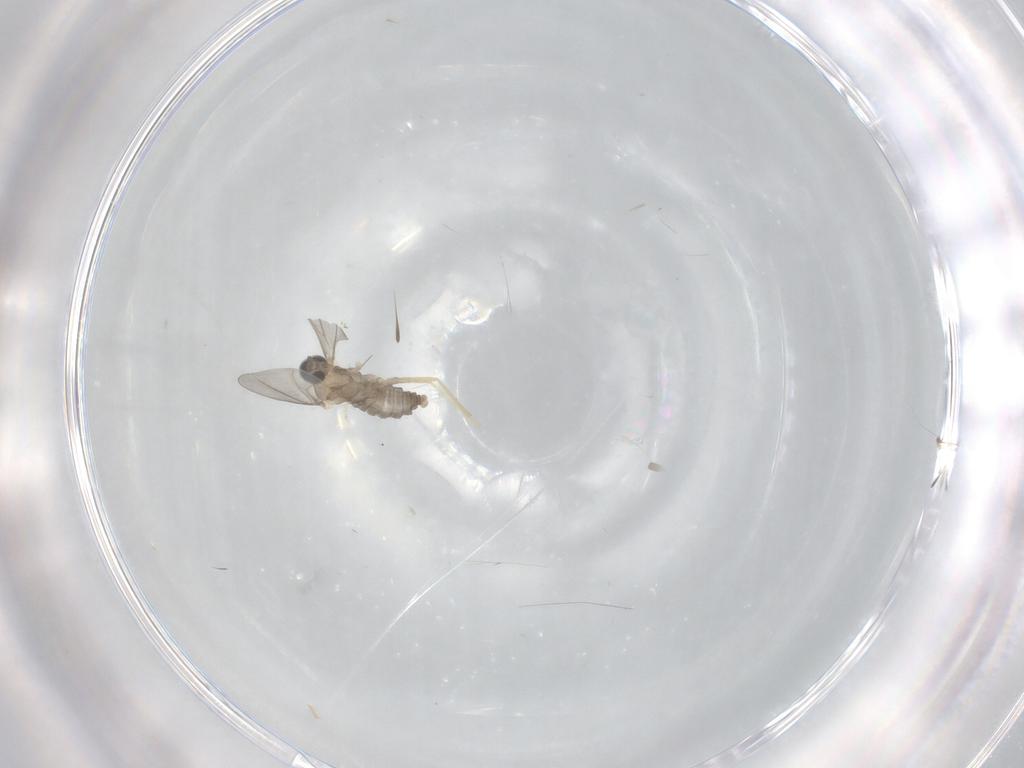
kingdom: Animalia
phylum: Arthropoda
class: Insecta
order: Diptera
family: Cecidomyiidae
